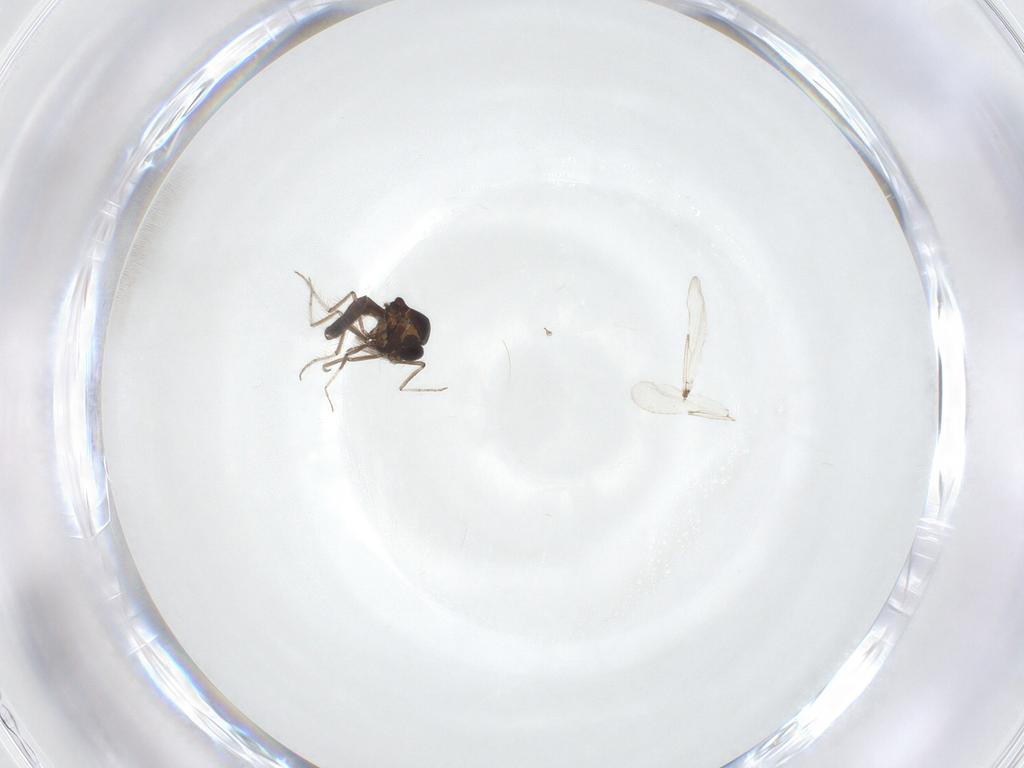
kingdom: Animalia
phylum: Arthropoda
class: Insecta
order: Diptera
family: Ceratopogonidae
